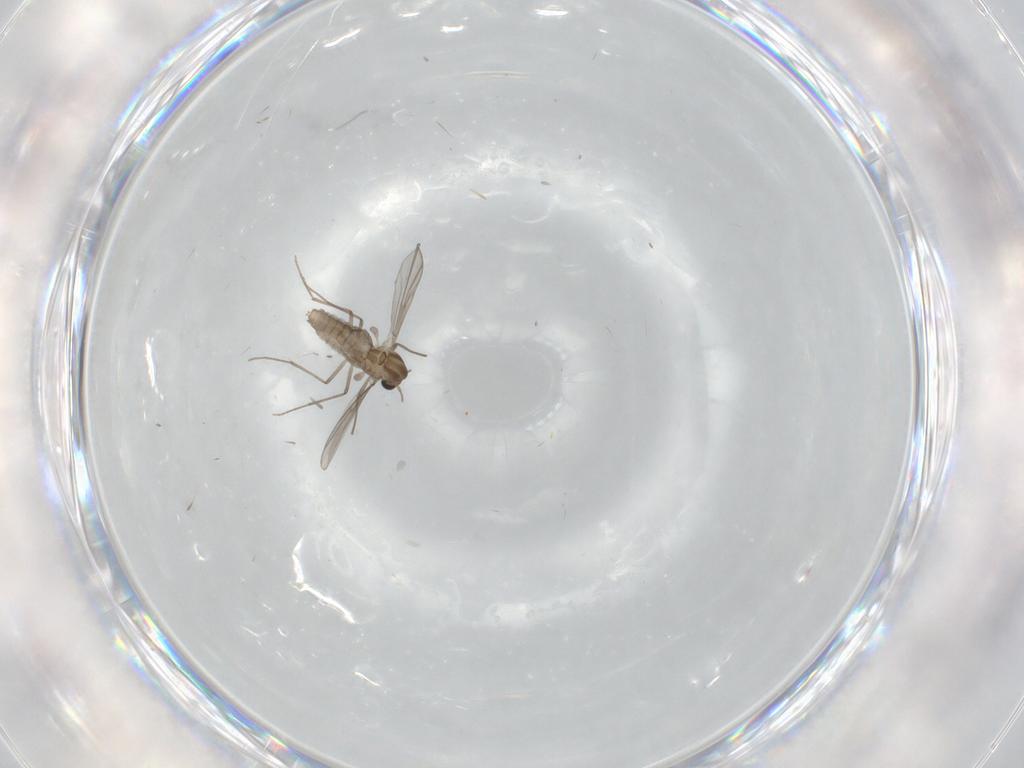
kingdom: Animalia
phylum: Arthropoda
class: Insecta
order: Diptera
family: Chironomidae
